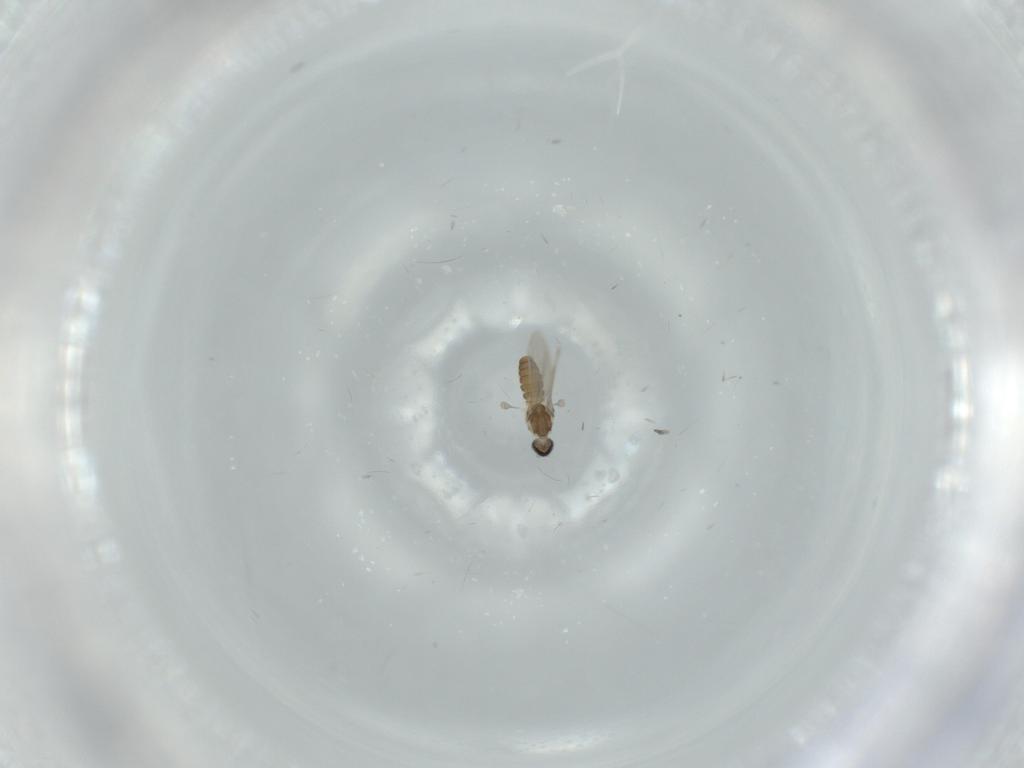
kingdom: Animalia
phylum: Arthropoda
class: Insecta
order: Diptera
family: Cecidomyiidae
